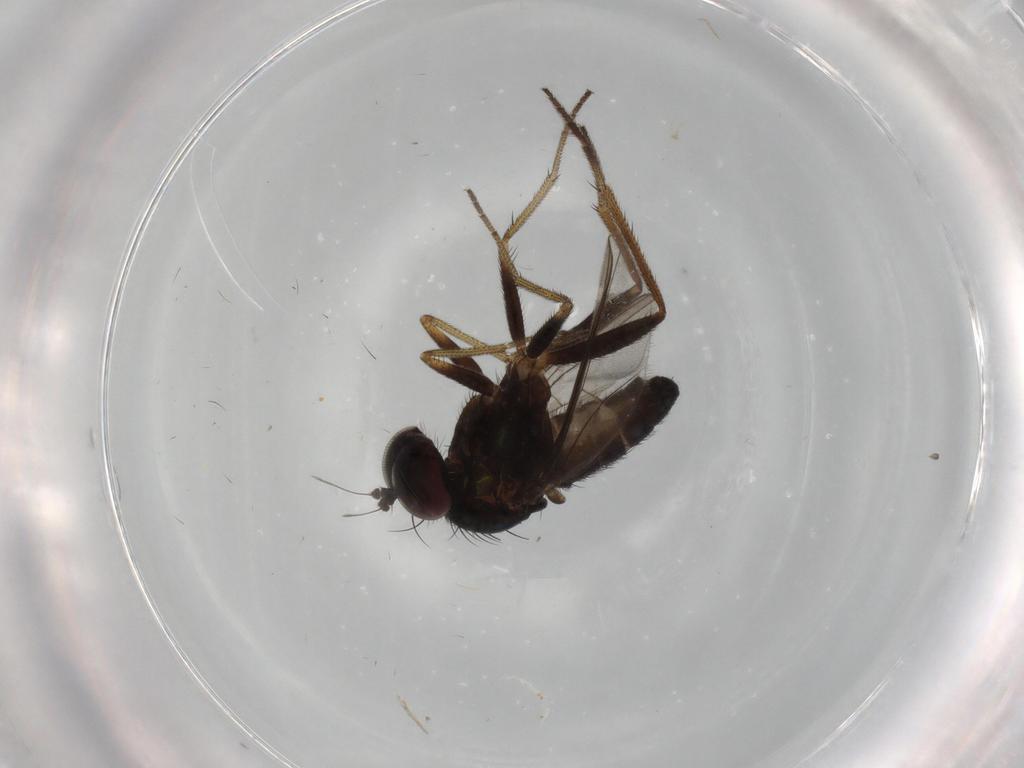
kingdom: Animalia
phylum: Arthropoda
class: Insecta
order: Diptera
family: Dolichopodidae
